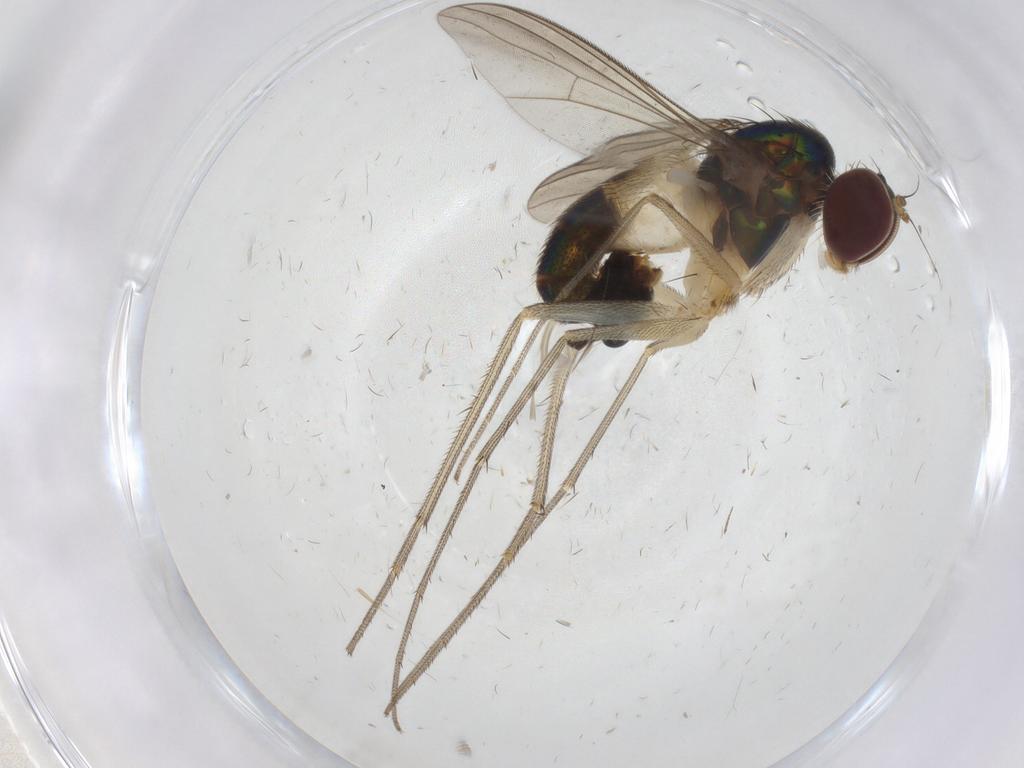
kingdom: Animalia
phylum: Arthropoda
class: Insecta
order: Diptera
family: Dolichopodidae
